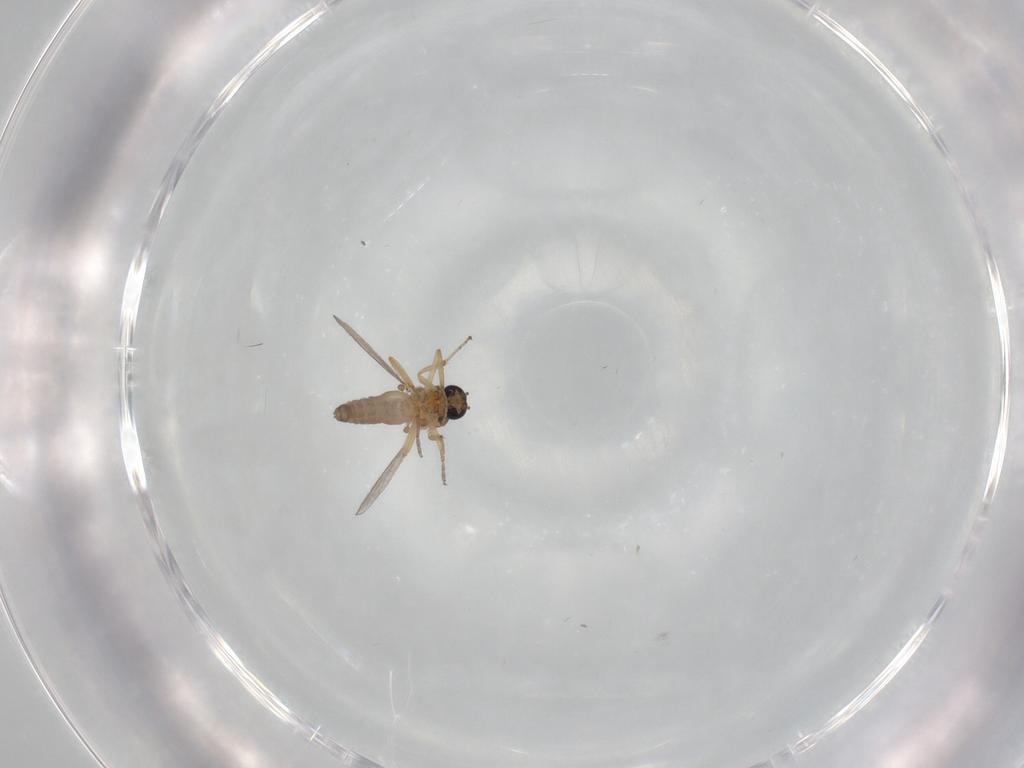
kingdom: Animalia
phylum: Arthropoda
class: Insecta
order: Diptera
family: Ceratopogonidae
